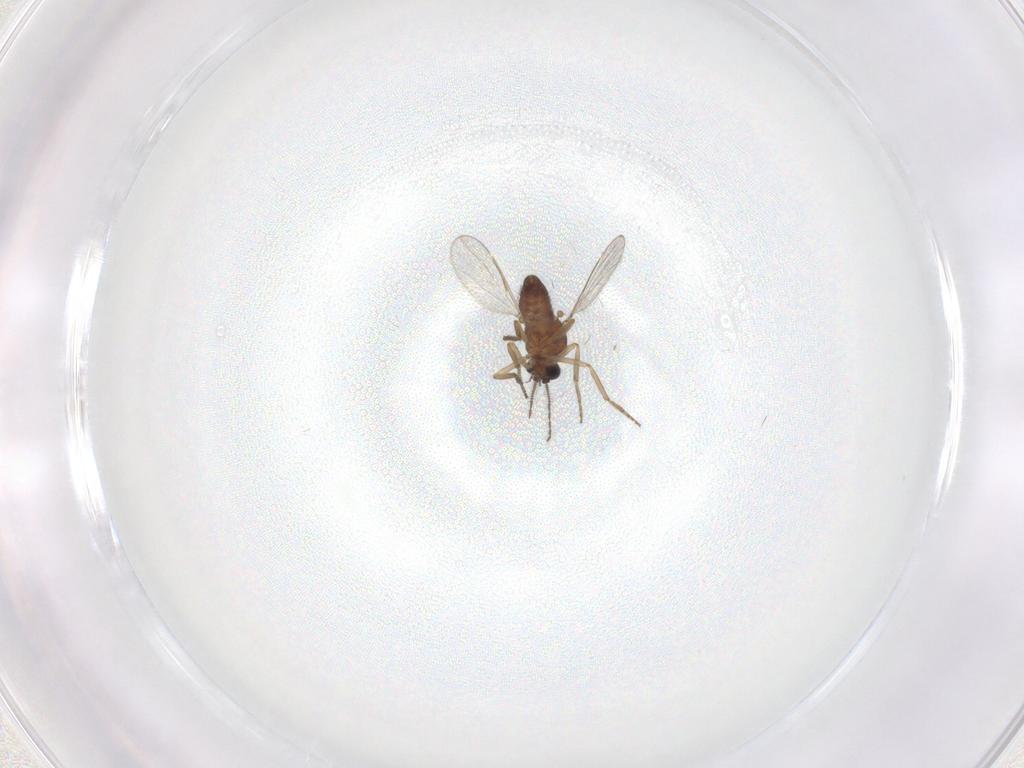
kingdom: Animalia
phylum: Arthropoda
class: Insecta
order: Diptera
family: Ceratopogonidae
